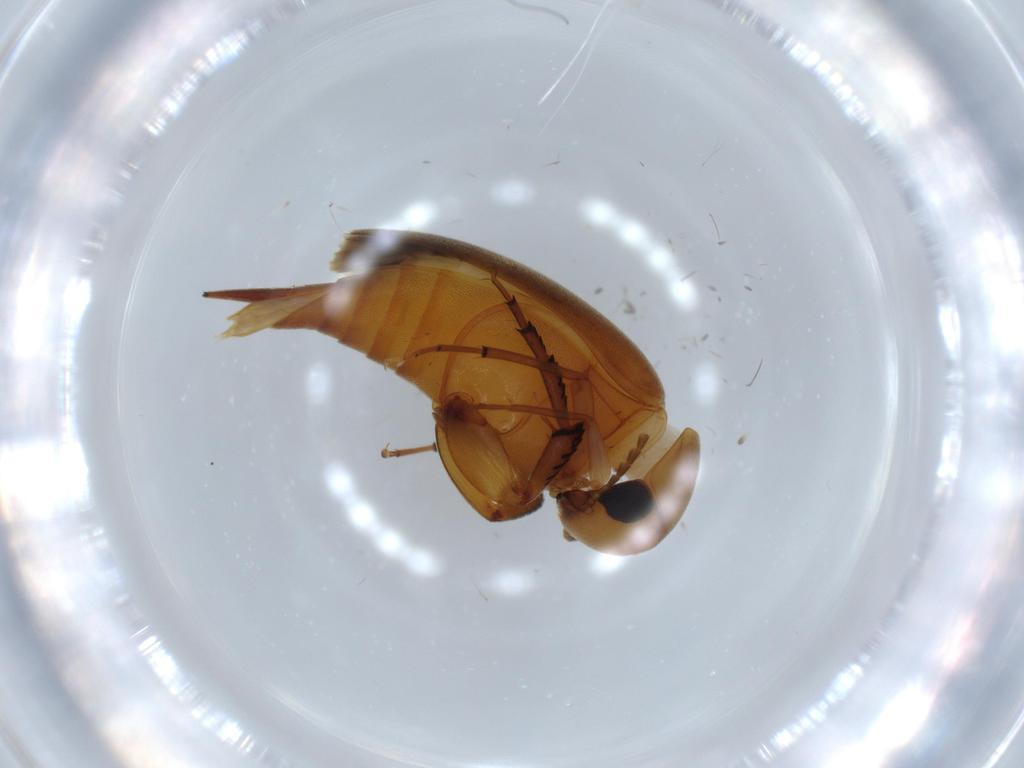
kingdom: Animalia
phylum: Arthropoda
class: Insecta
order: Coleoptera
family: Mordellidae
